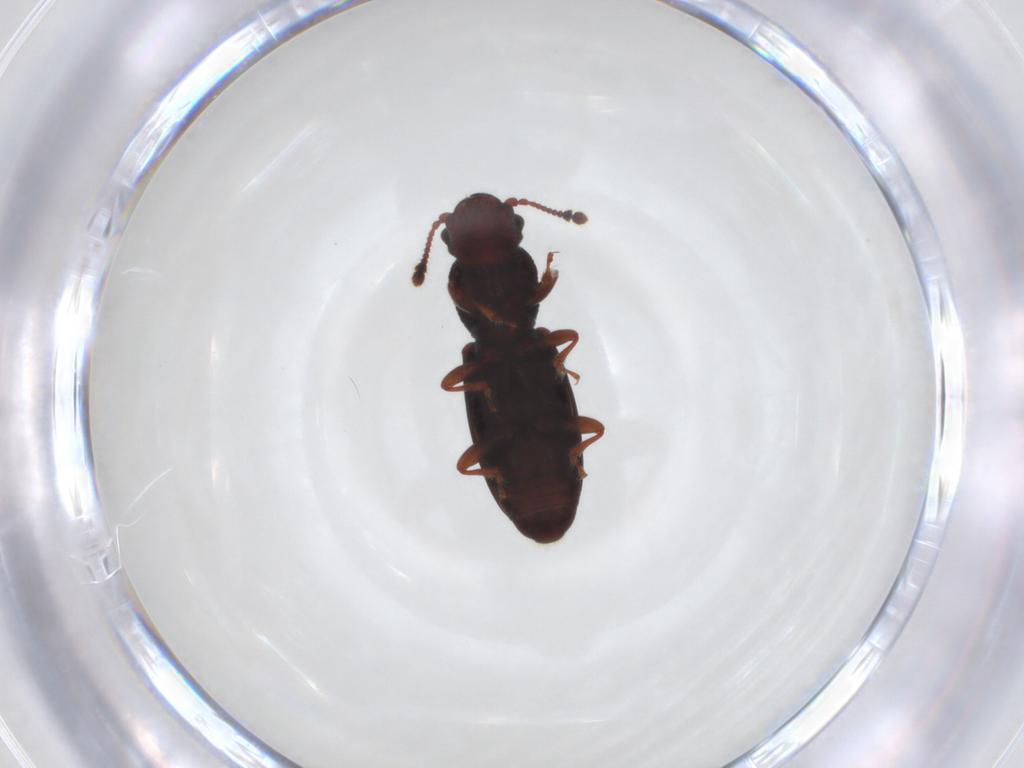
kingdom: Animalia
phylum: Arthropoda
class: Insecta
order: Coleoptera
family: Monotomidae
